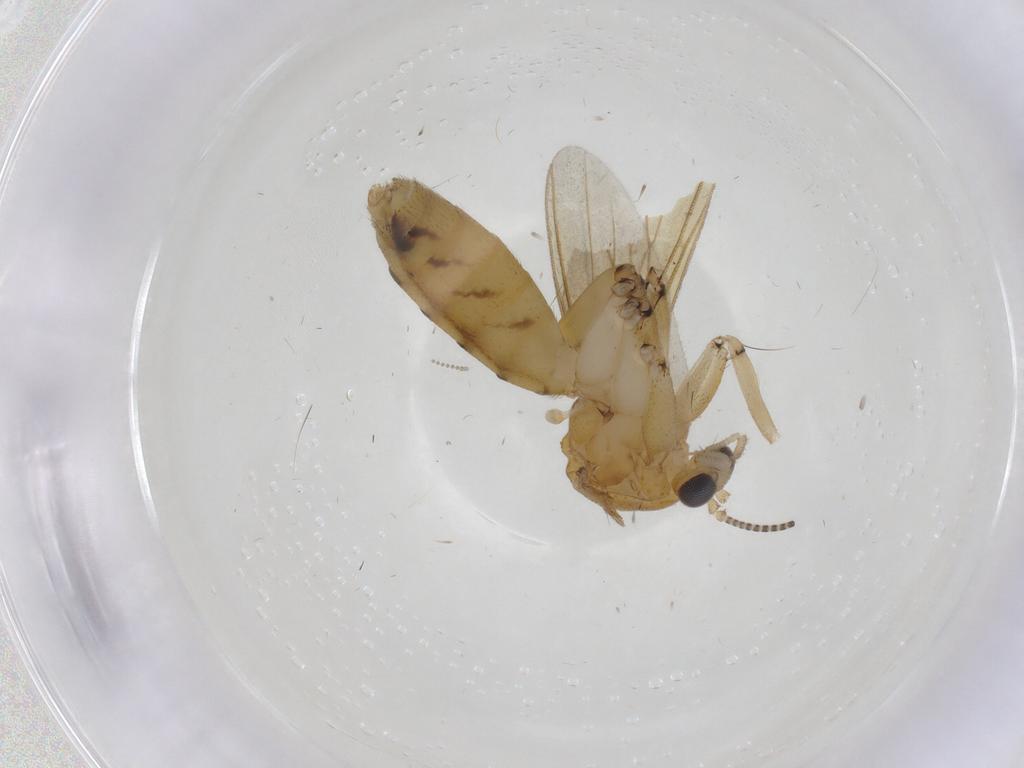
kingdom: Animalia
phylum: Arthropoda
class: Insecta
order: Diptera
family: Mycetophilidae
